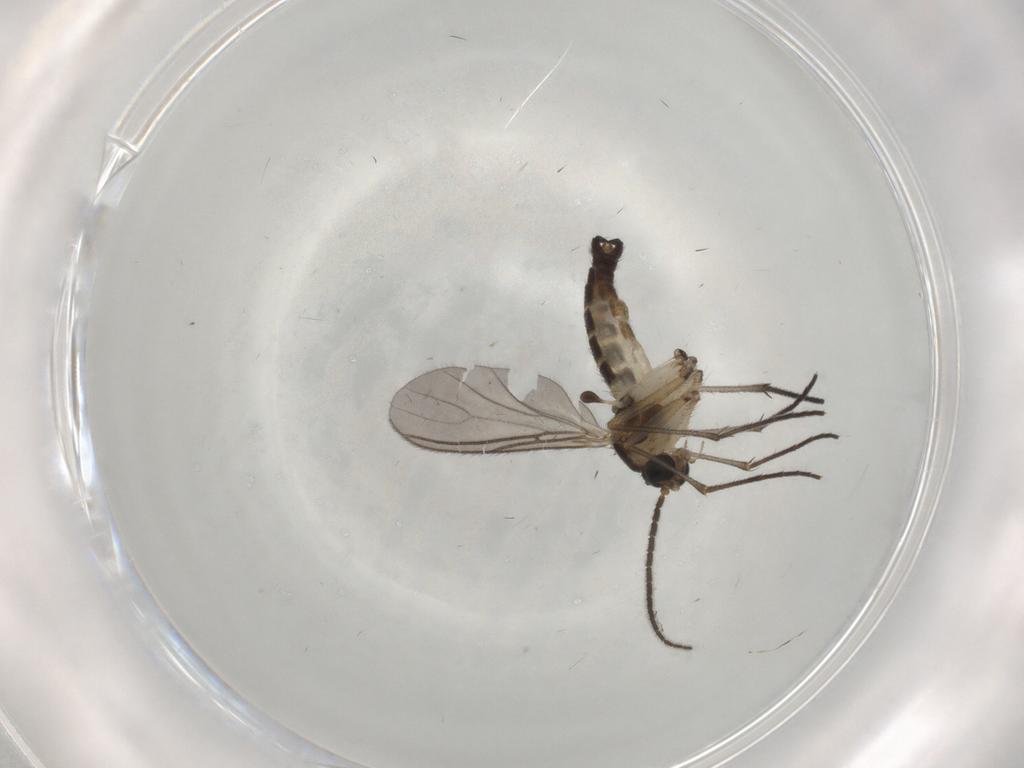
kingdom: Animalia
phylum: Arthropoda
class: Insecta
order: Diptera
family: Sciaridae
